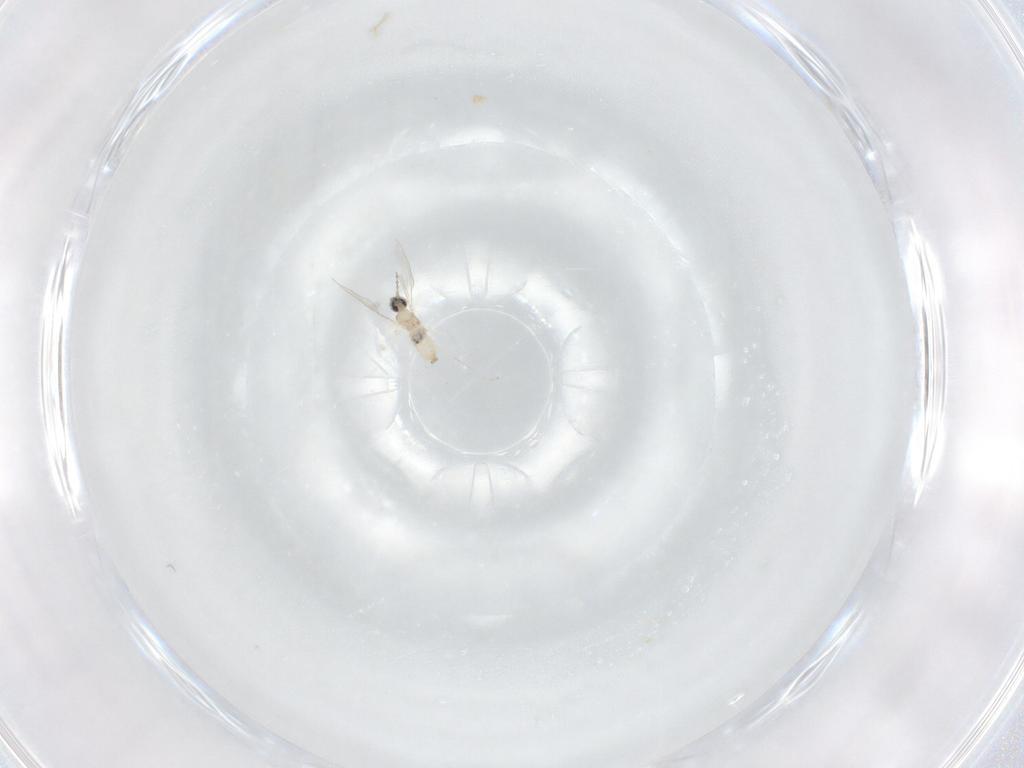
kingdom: Animalia
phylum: Arthropoda
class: Insecta
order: Diptera
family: Cecidomyiidae
